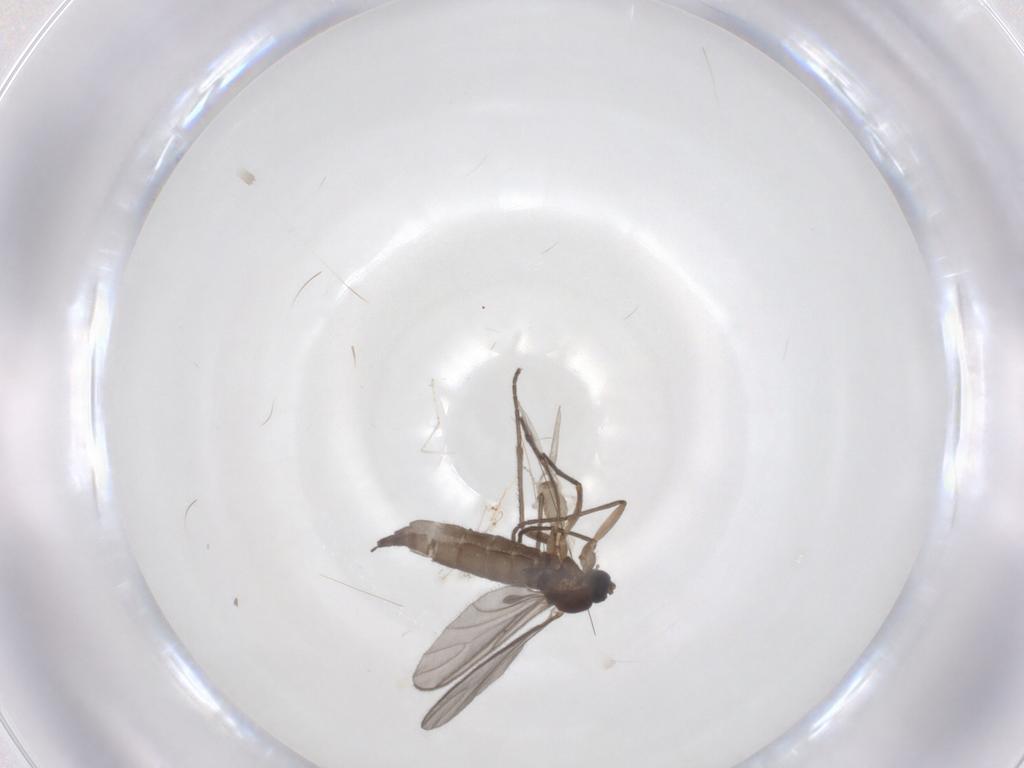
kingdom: Animalia
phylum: Arthropoda
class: Insecta
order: Diptera
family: Sciaridae
